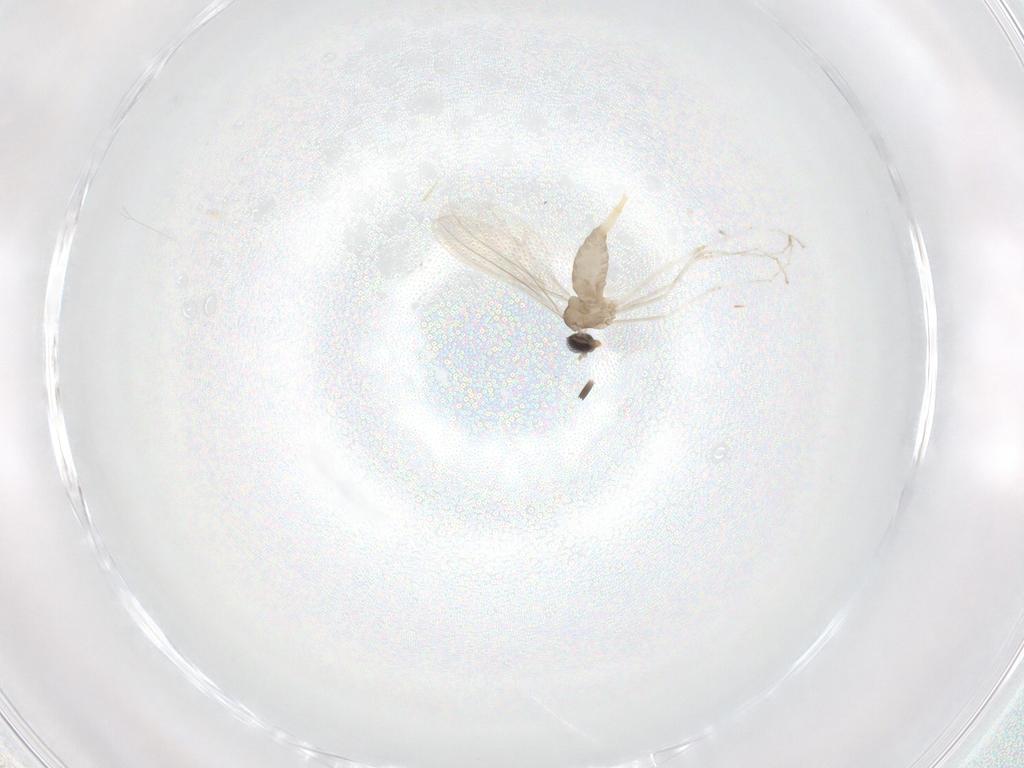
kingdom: Animalia
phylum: Arthropoda
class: Insecta
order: Diptera
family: Cecidomyiidae
